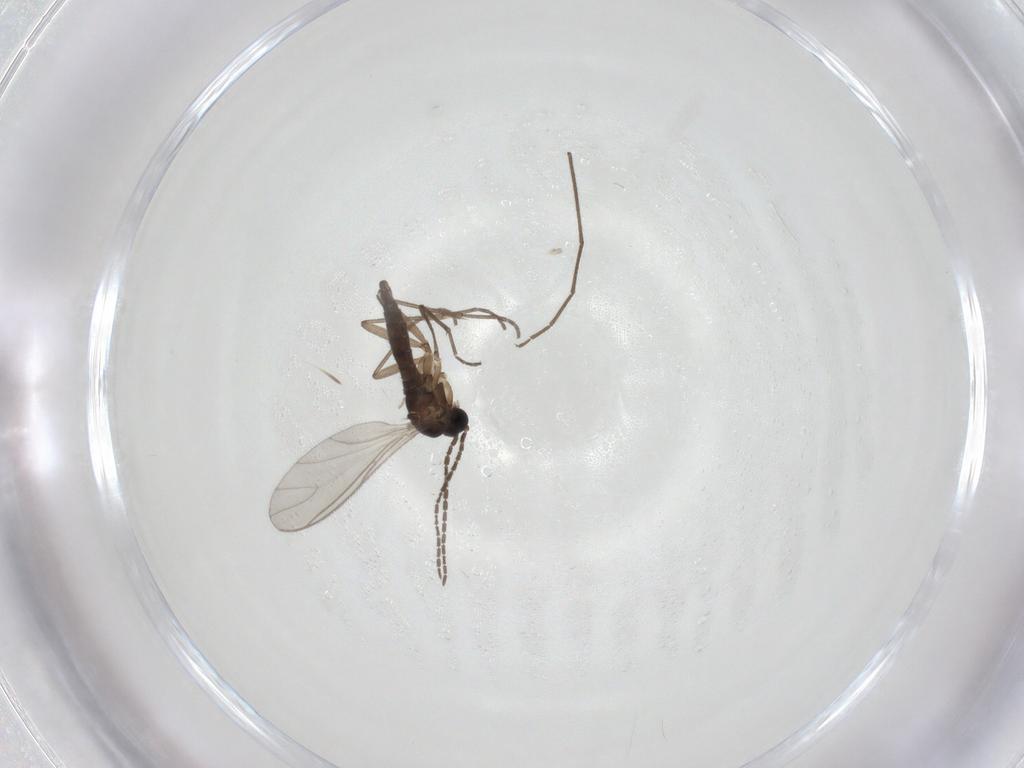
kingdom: Animalia
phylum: Arthropoda
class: Insecta
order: Diptera
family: Sciaridae
